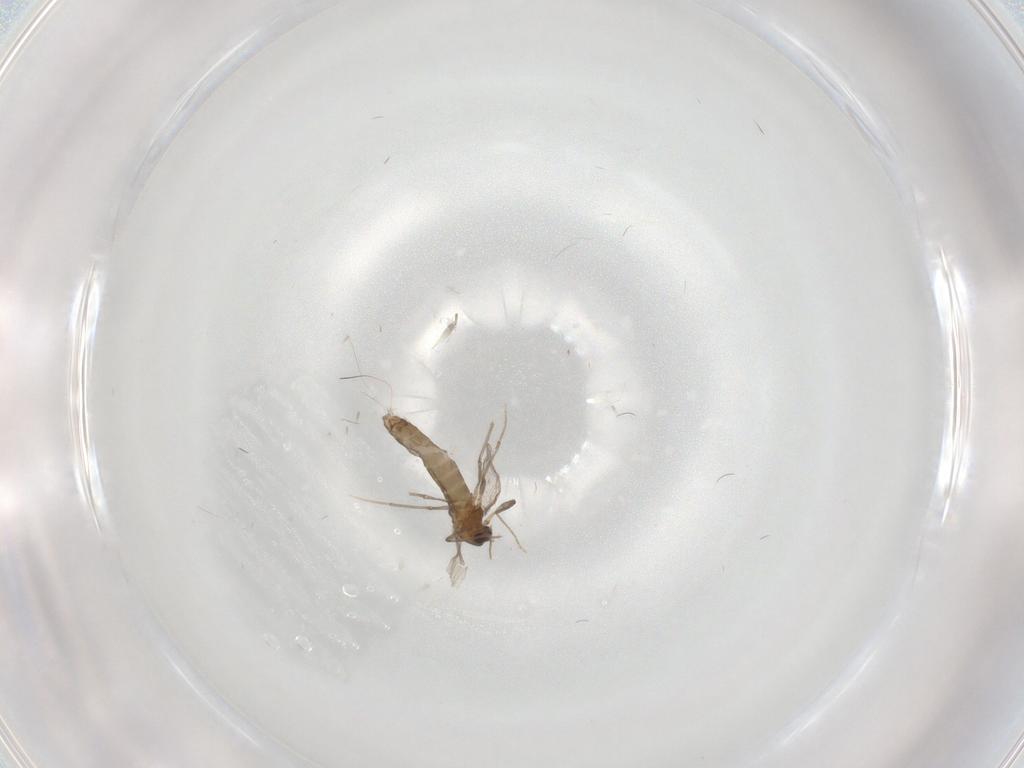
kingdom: Animalia
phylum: Arthropoda
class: Insecta
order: Diptera
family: Chironomidae
